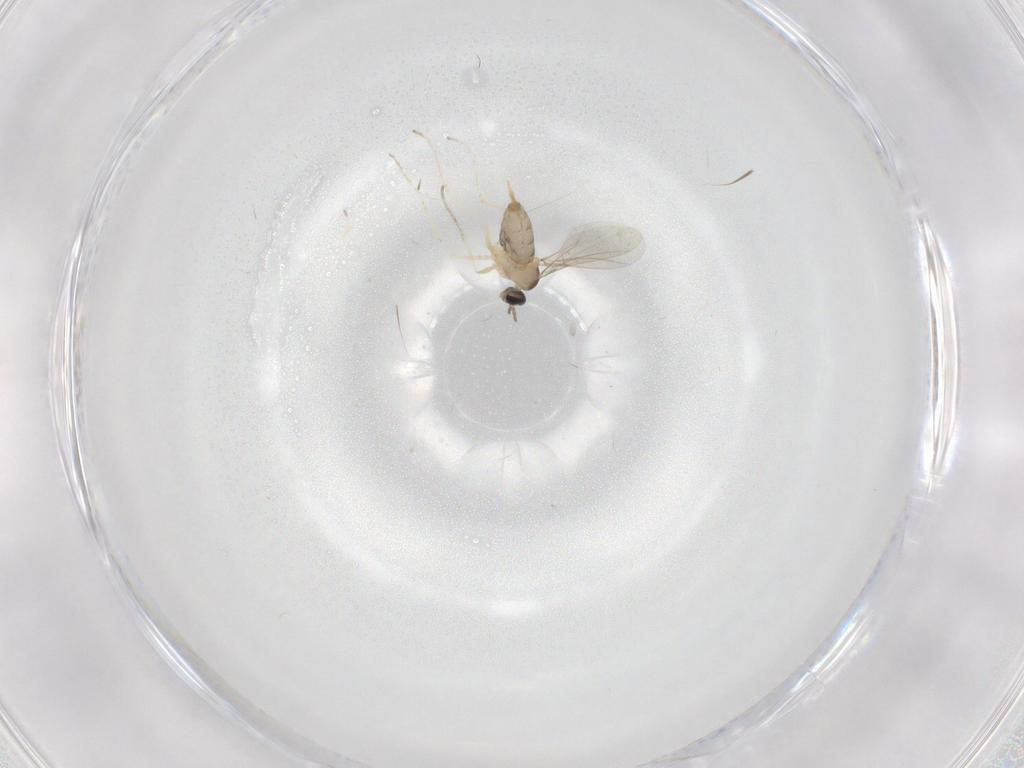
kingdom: Animalia
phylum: Arthropoda
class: Insecta
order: Diptera
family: Cecidomyiidae
